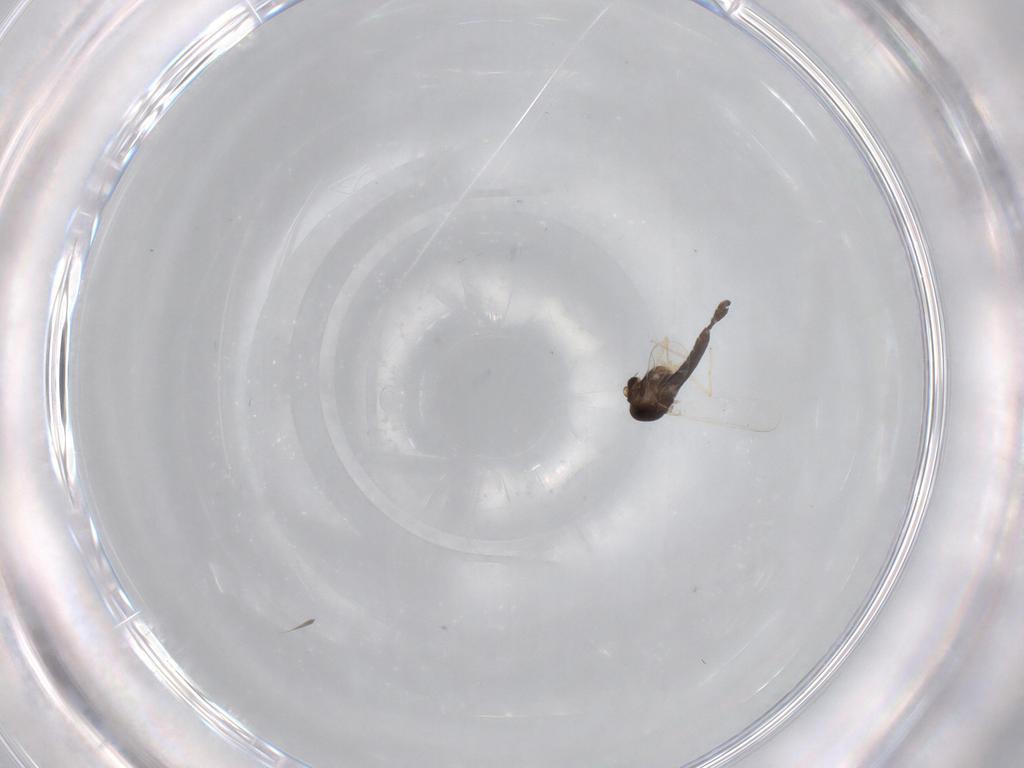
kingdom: Animalia
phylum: Arthropoda
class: Insecta
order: Diptera
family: Chironomidae
